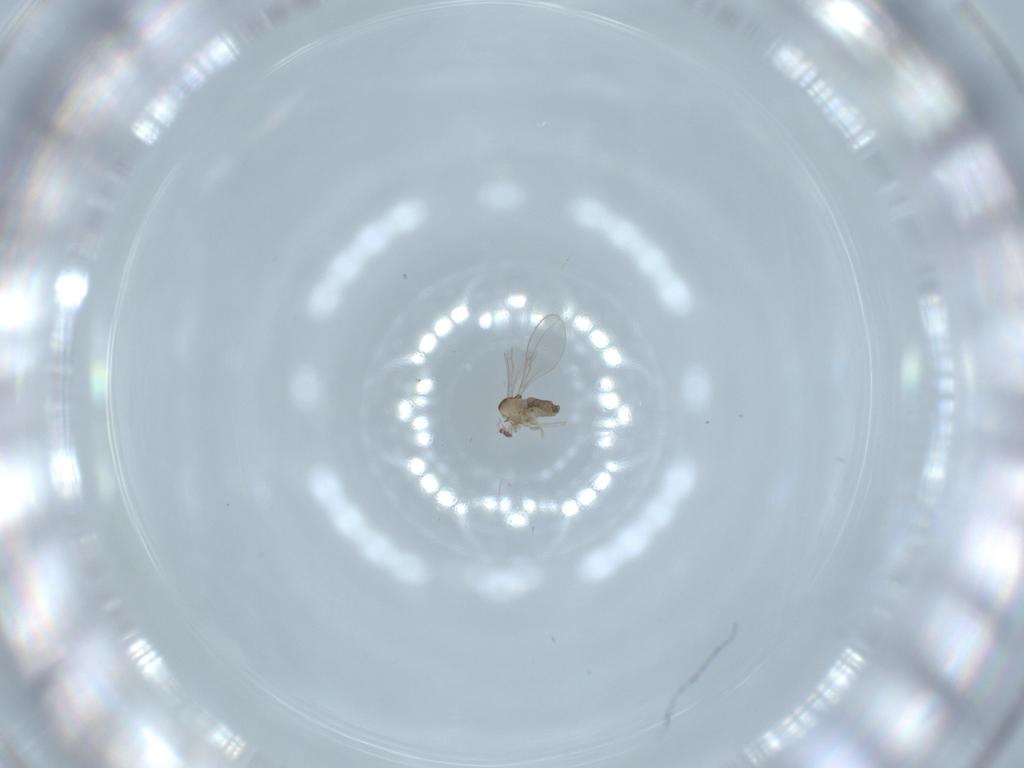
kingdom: Animalia
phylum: Arthropoda
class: Insecta
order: Diptera
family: Cecidomyiidae
